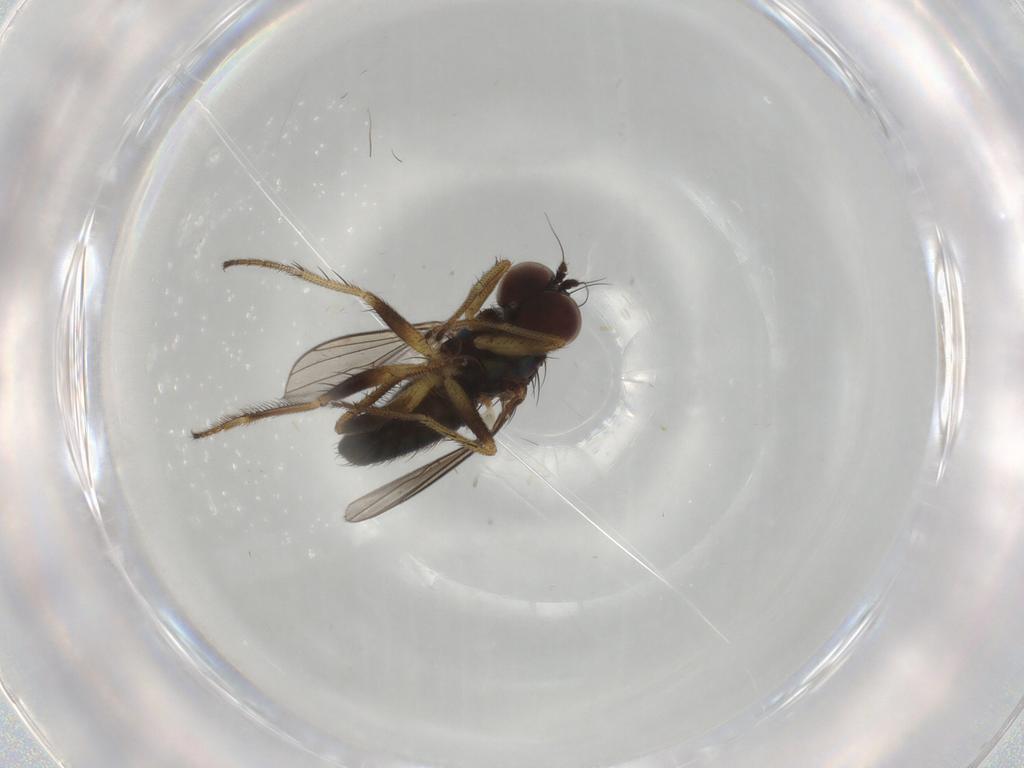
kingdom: Animalia
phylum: Arthropoda
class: Insecta
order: Diptera
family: Dolichopodidae
